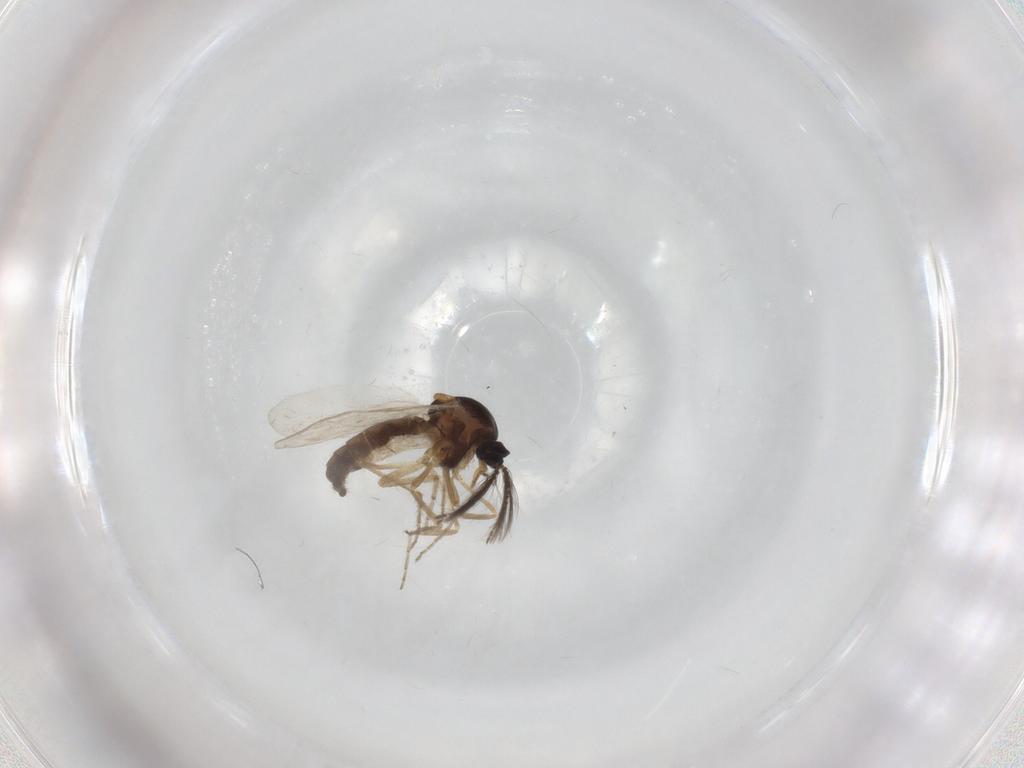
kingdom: Animalia
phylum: Arthropoda
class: Insecta
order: Diptera
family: Ceratopogonidae
